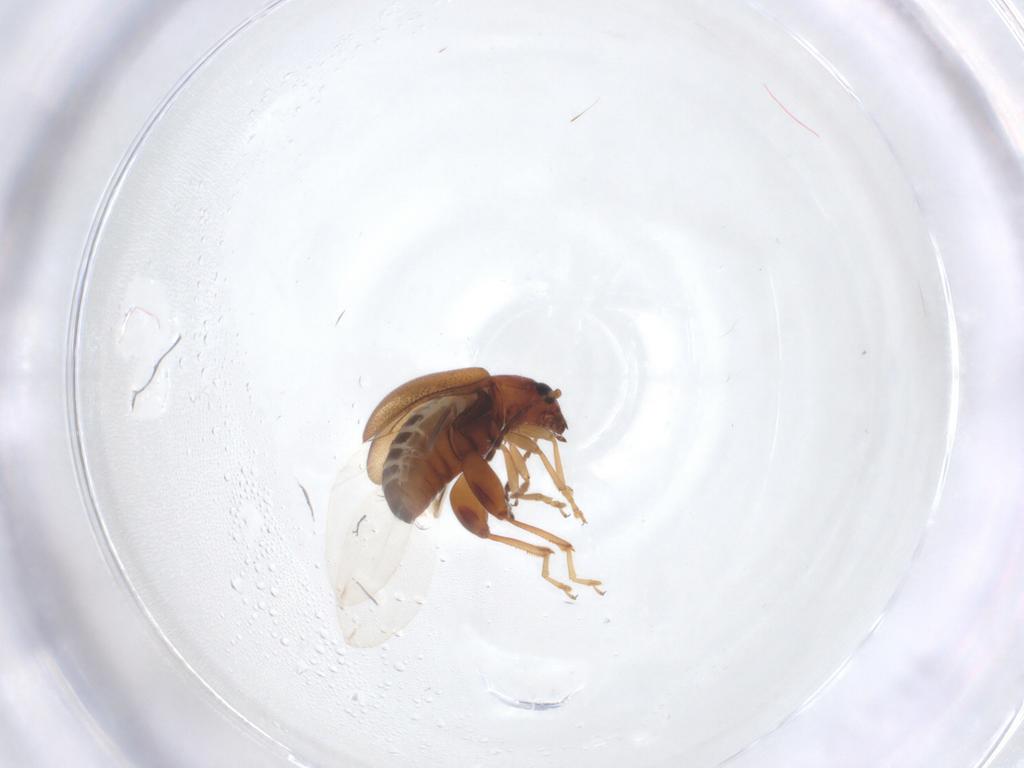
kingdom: Animalia
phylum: Arthropoda
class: Insecta
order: Coleoptera
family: Chrysomelidae
